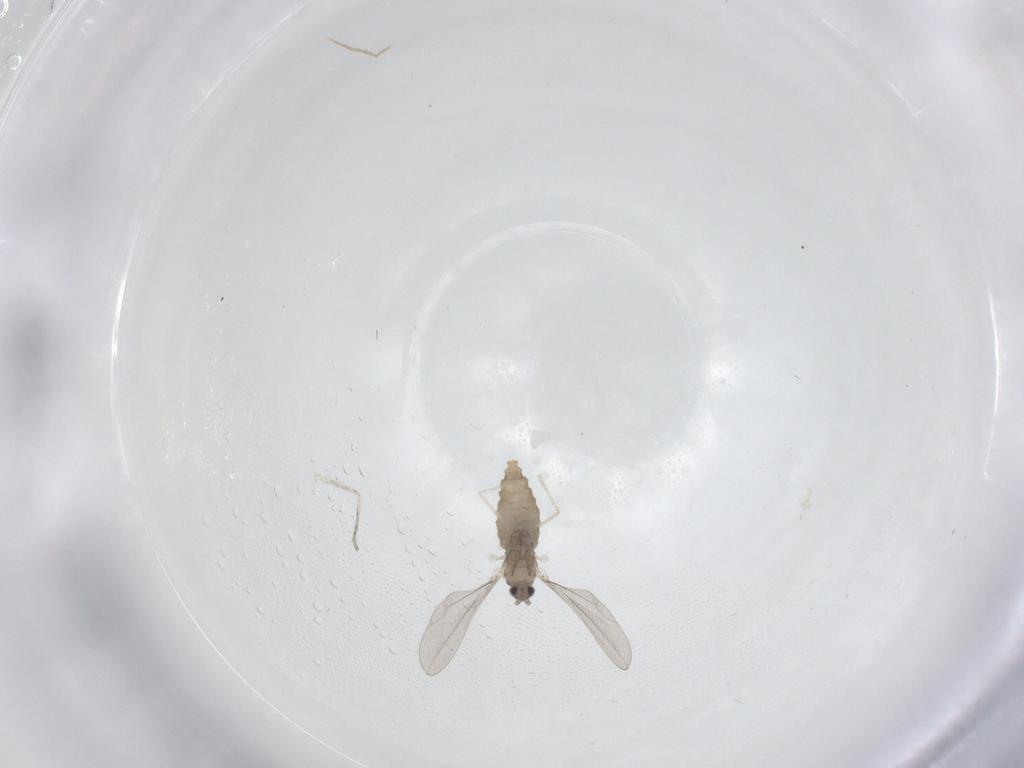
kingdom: Animalia
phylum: Arthropoda
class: Insecta
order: Diptera
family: Cecidomyiidae
